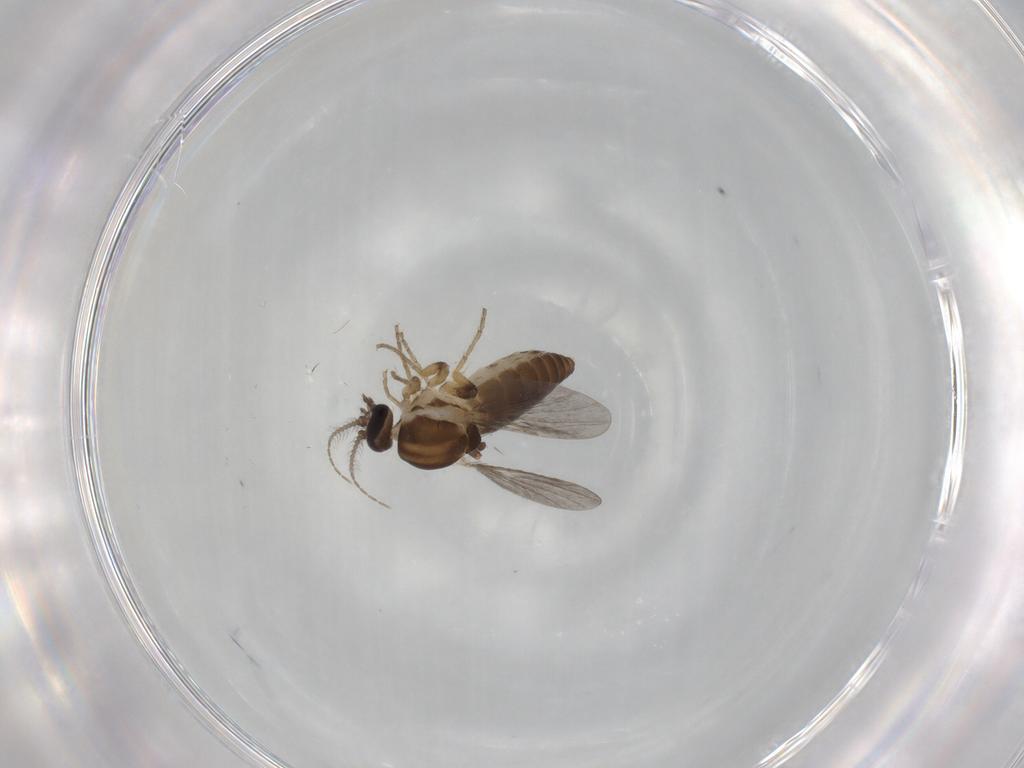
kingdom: Animalia
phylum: Arthropoda
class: Insecta
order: Diptera
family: Ceratopogonidae
